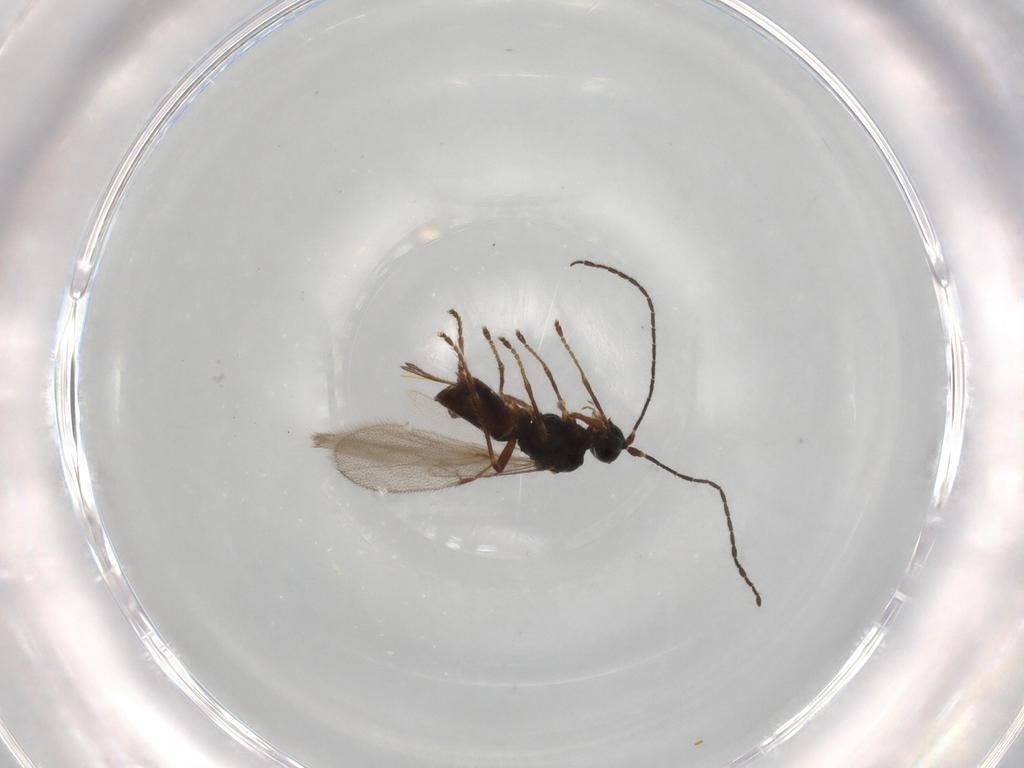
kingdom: Animalia
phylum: Arthropoda
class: Insecta
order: Hymenoptera
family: Braconidae
